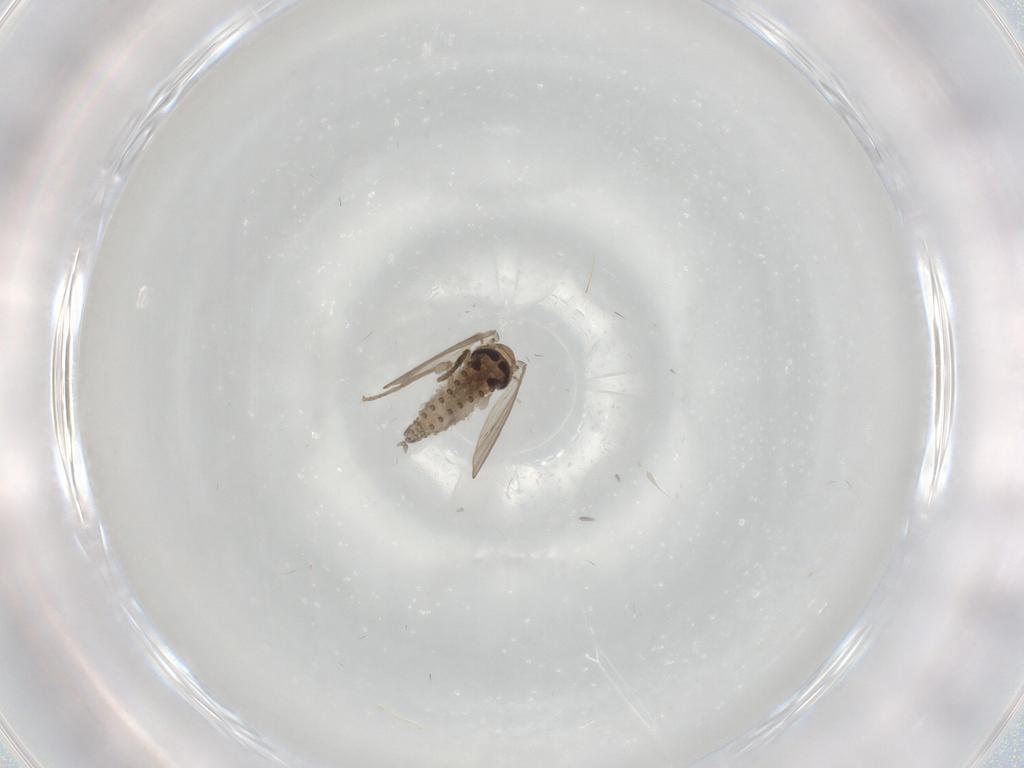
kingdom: Animalia
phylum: Arthropoda
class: Insecta
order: Diptera
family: Psychodidae
